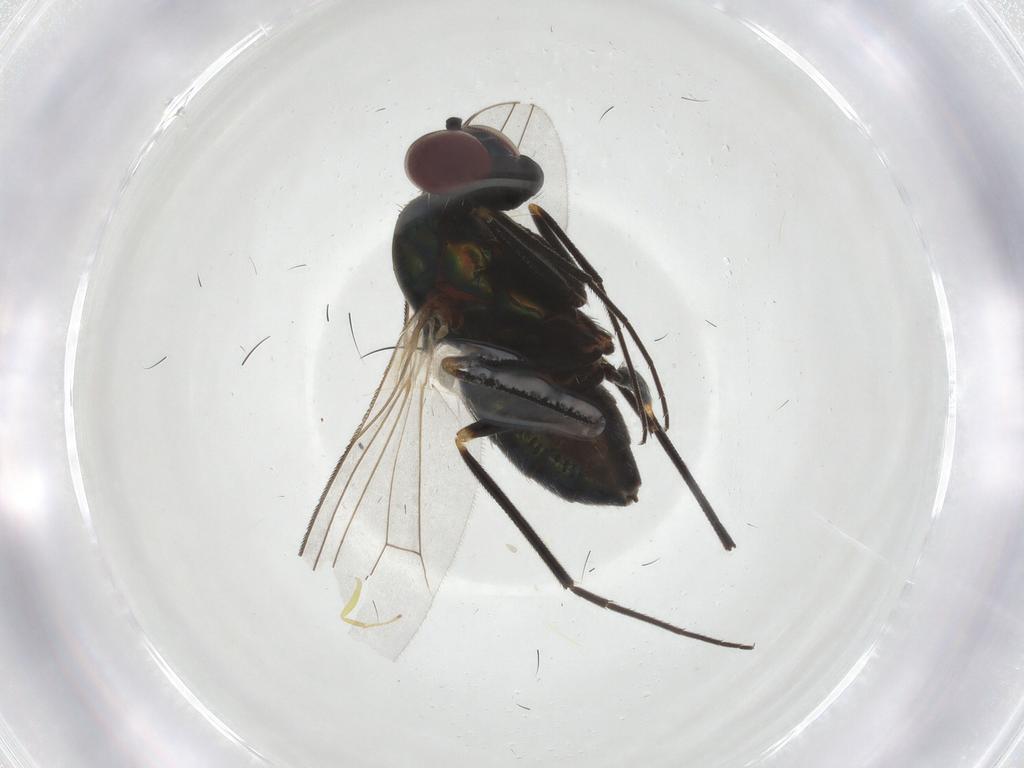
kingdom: Animalia
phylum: Arthropoda
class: Insecta
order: Diptera
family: Dolichopodidae
